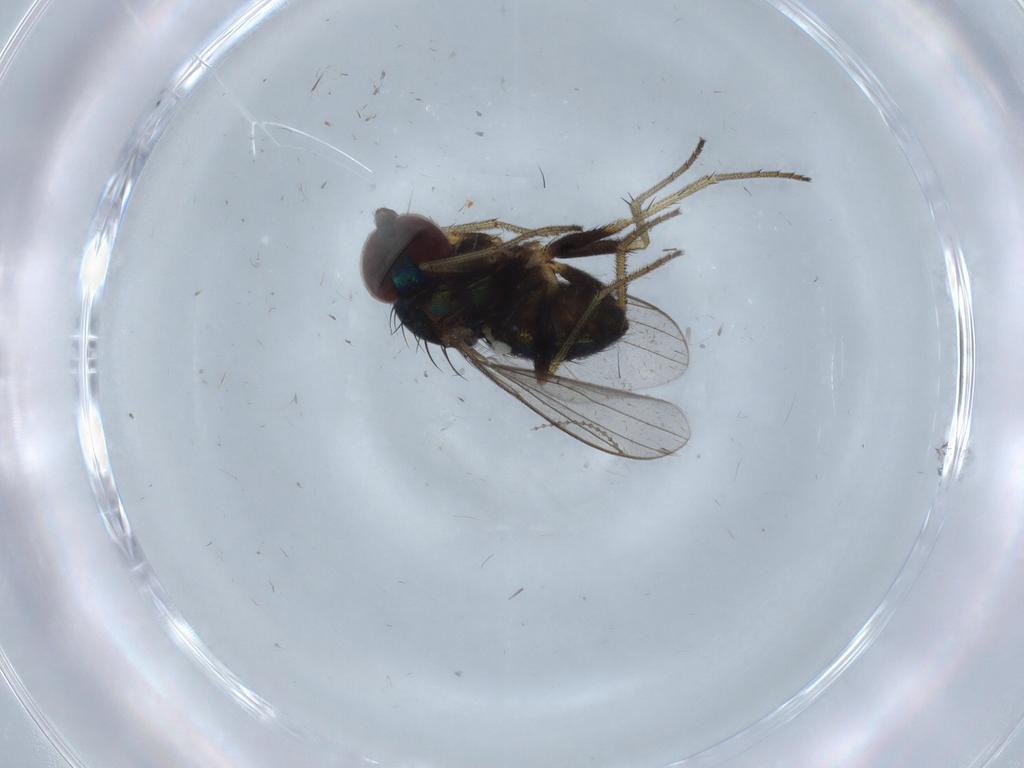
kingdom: Animalia
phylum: Arthropoda
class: Insecta
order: Diptera
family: Dolichopodidae
